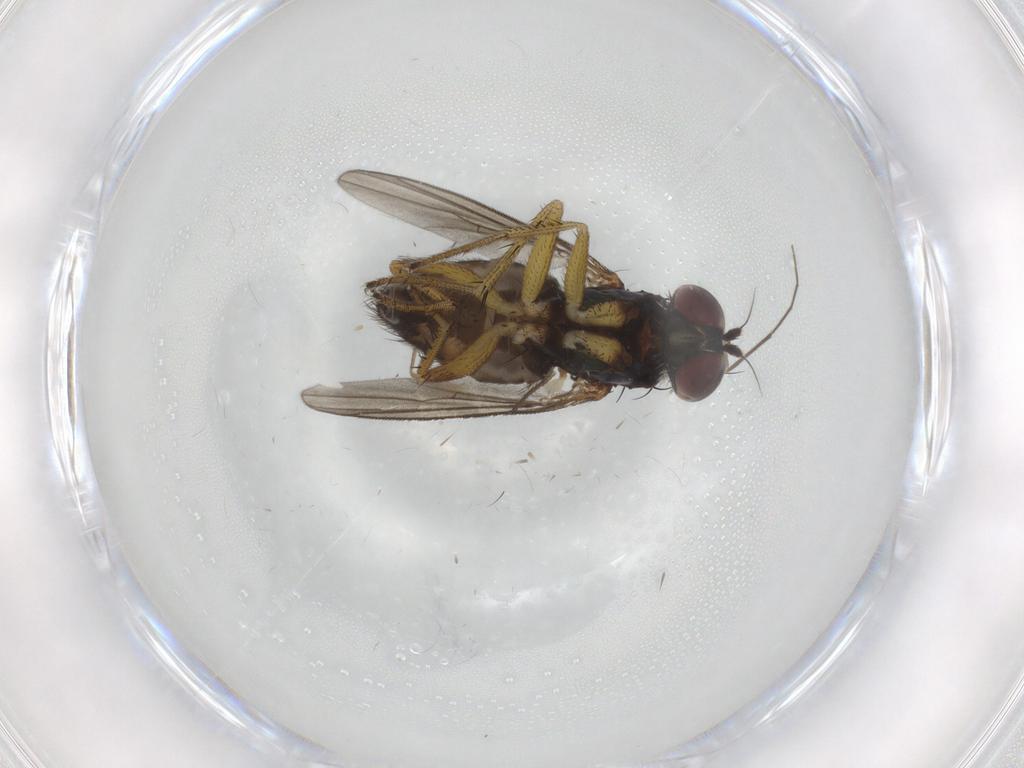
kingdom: Animalia
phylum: Arthropoda
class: Insecta
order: Diptera
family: Dolichopodidae
